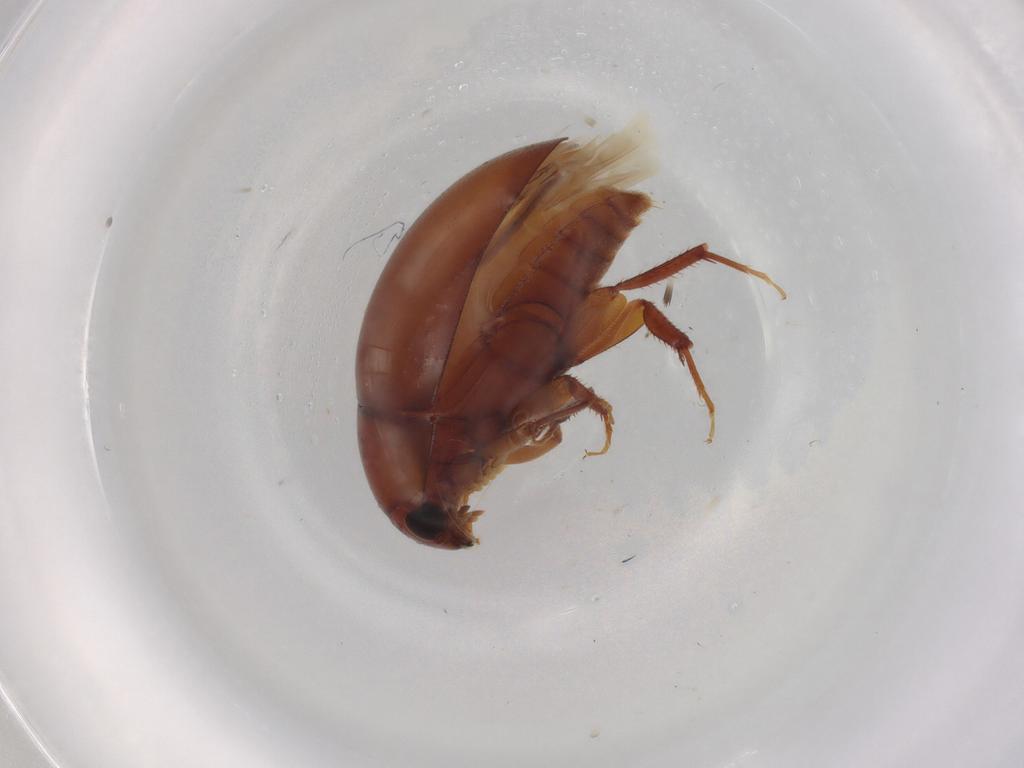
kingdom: Animalia
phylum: Arthropoda
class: Insecta
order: Coleoptera
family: Phalacridae
